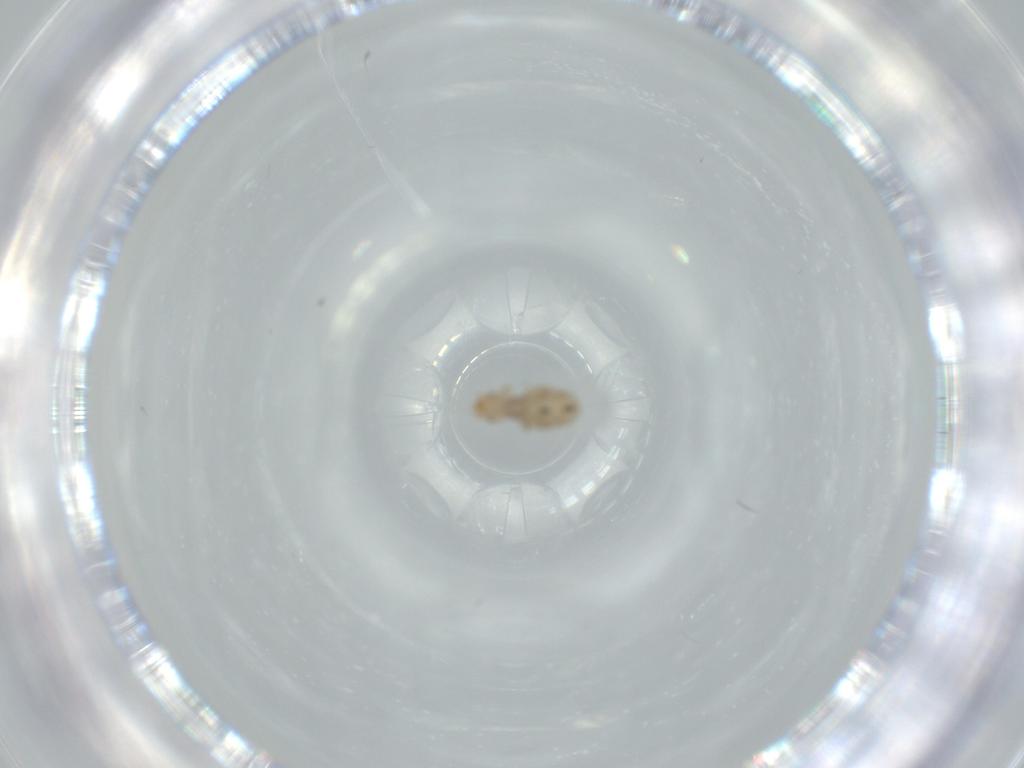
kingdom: Animalia
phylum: Arthropoda
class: Insecta
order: Psocodea
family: Liposcelididae
